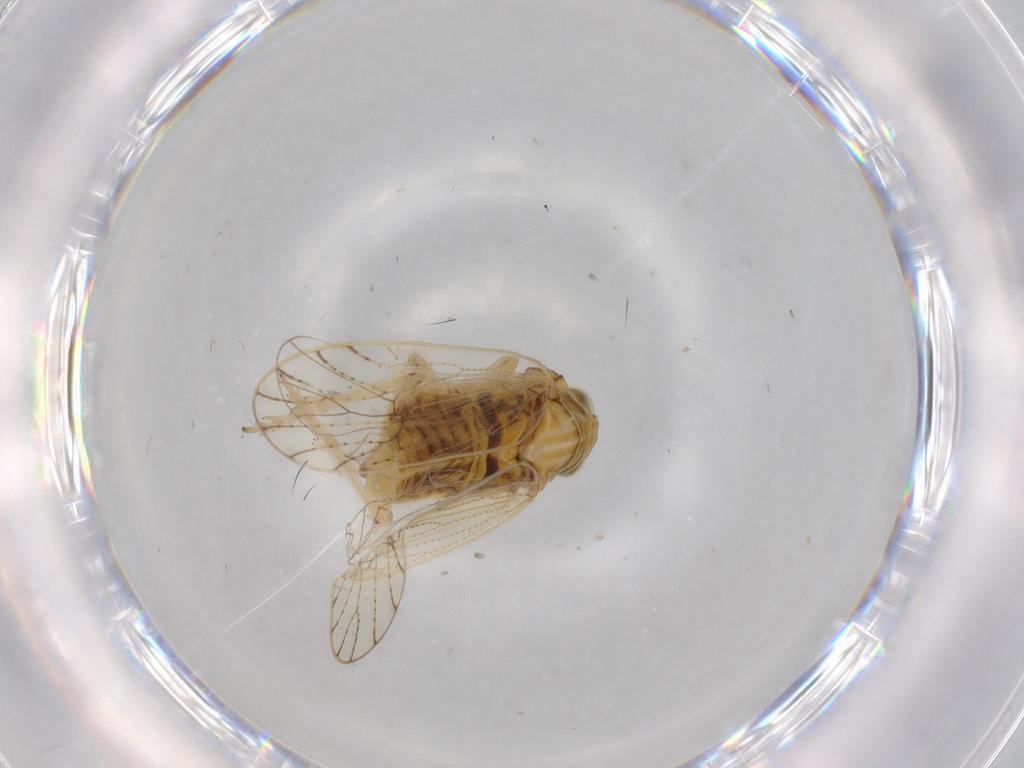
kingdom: Animalia
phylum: Arthropoda
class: Insecta
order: Hemiptera
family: Delphacidae
